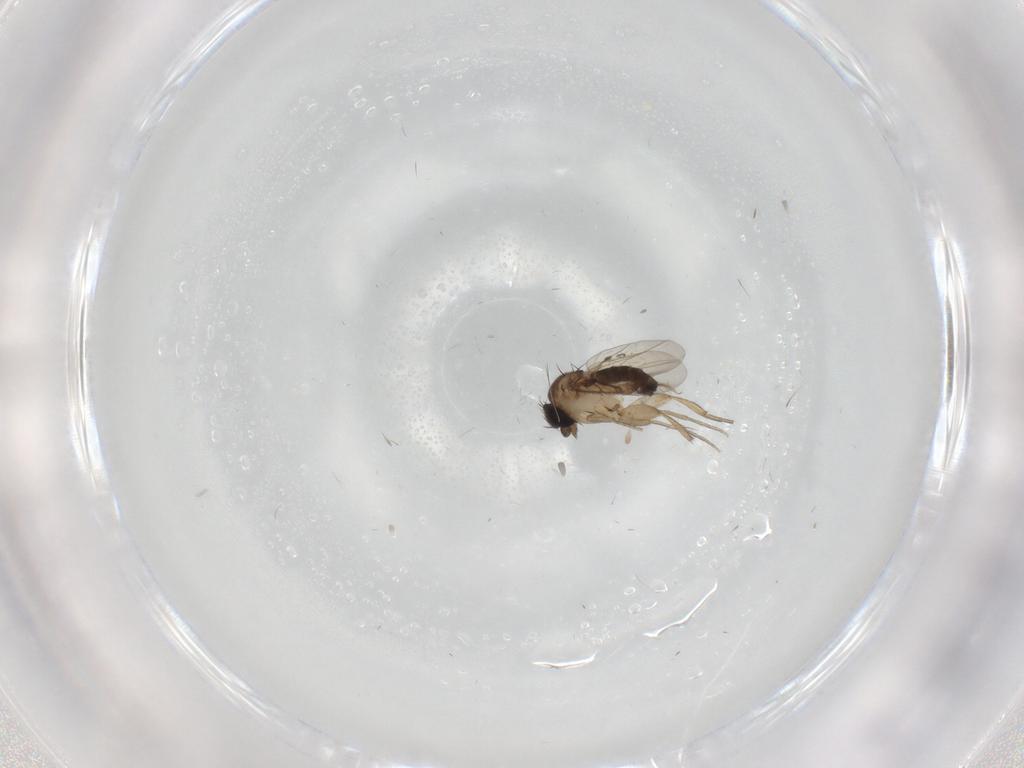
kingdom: Animalia
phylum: Arthropoda
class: Insecta
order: Diptera
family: Phoridae
